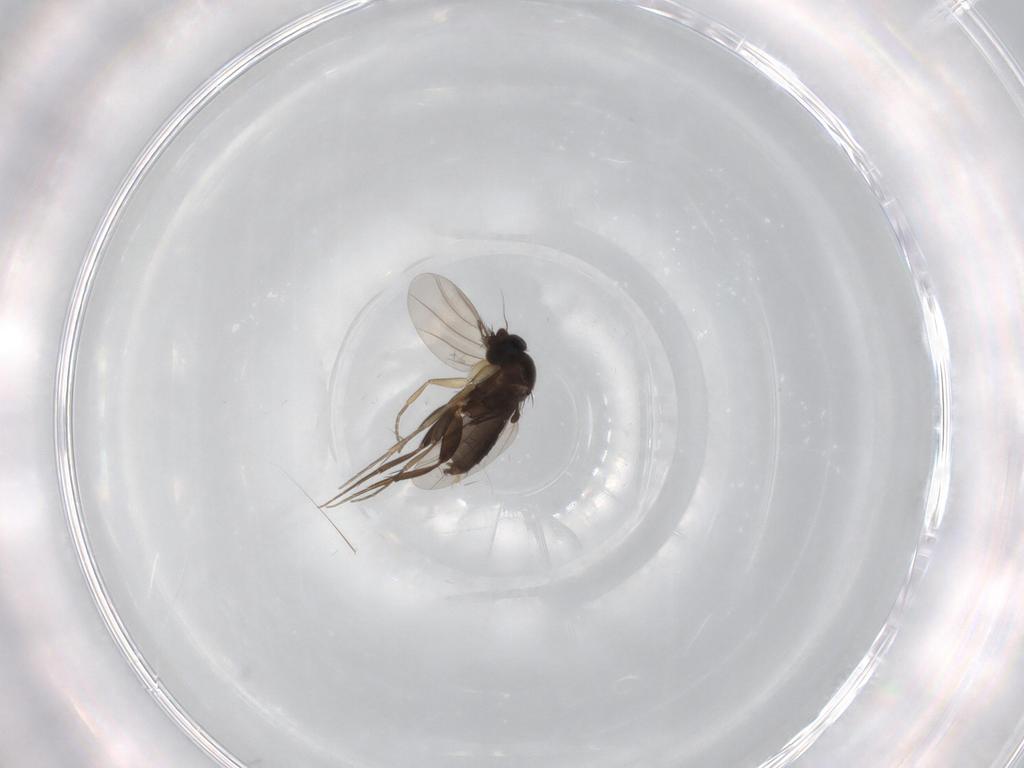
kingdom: Animalia
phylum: Arthropoda
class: Insecta
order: Diptera
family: Phoridae
